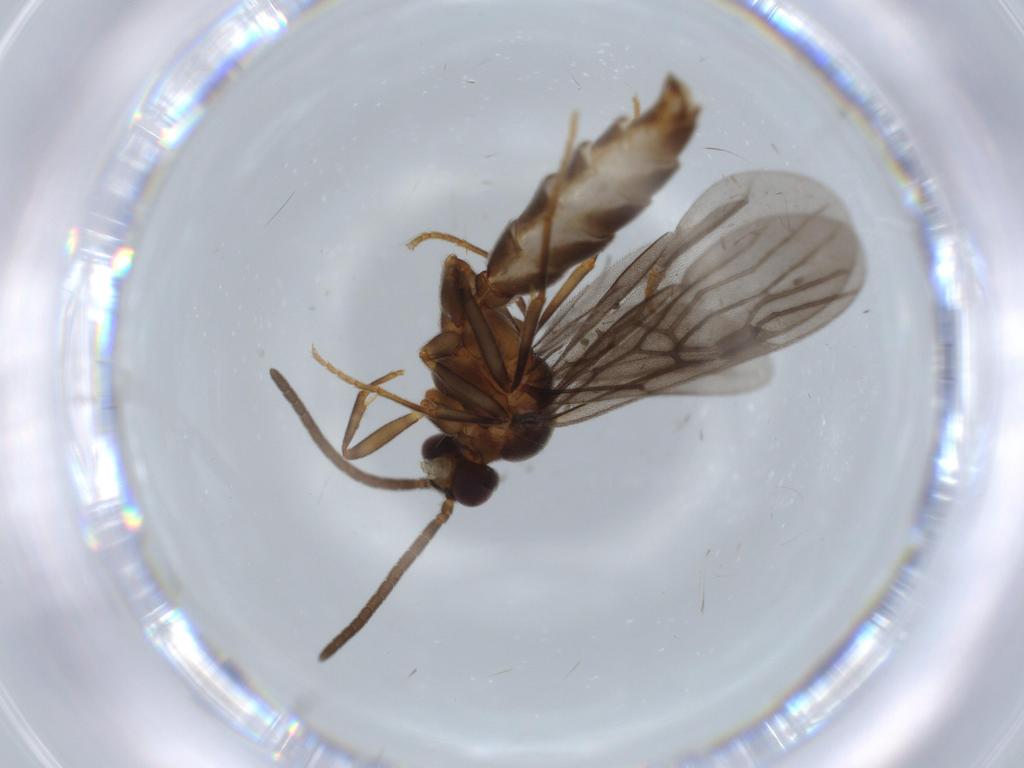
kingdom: Animalia
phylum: Arthropoda
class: Insecta
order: Hymenoptera
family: Formicidae
